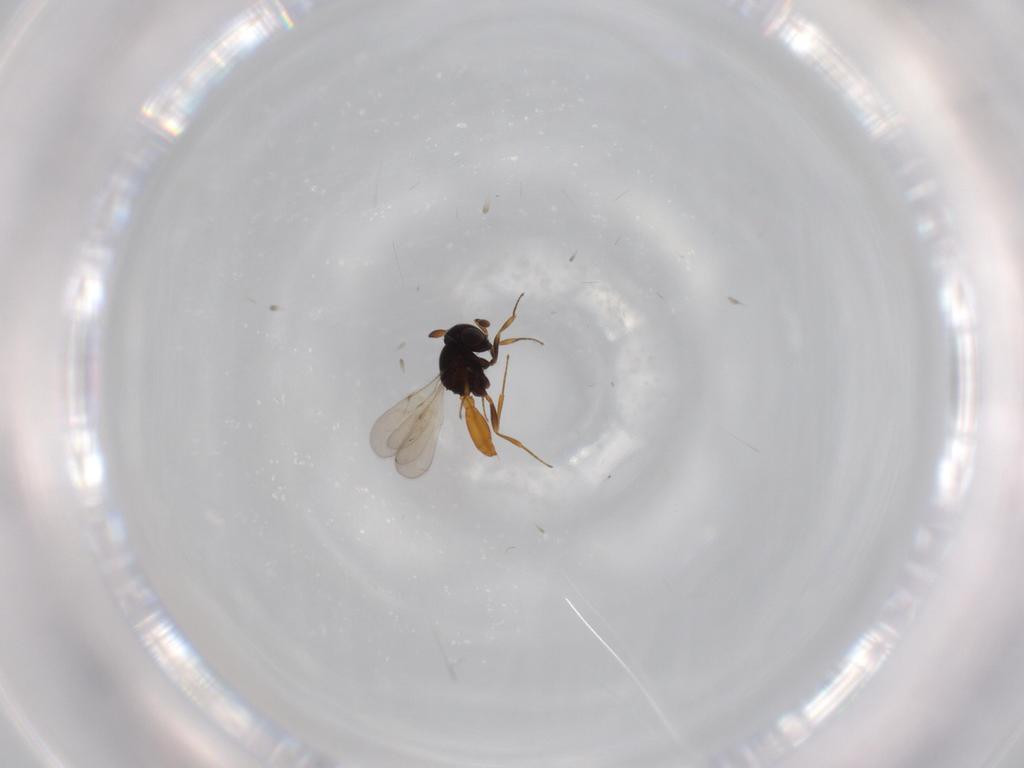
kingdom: Animalia
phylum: Arthropoda
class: Insecta
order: Hymenoptera
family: Scelionidae
